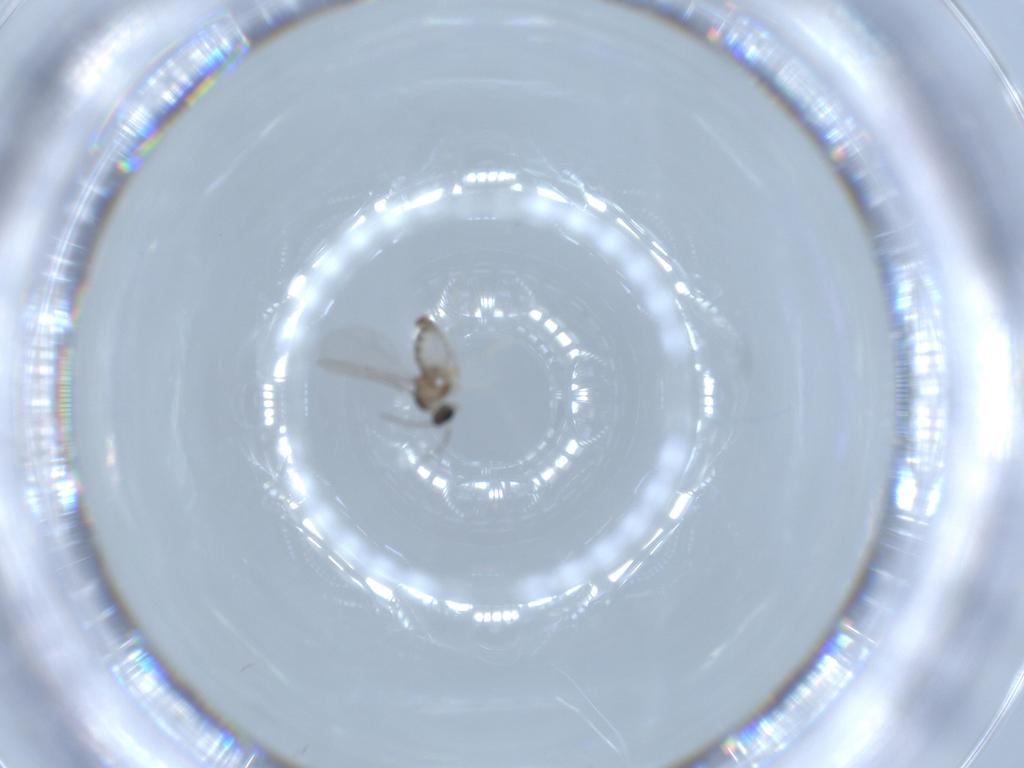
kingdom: Animalia
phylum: Arthropoda
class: Insecta
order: Diptera
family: Cecidomyiidae
